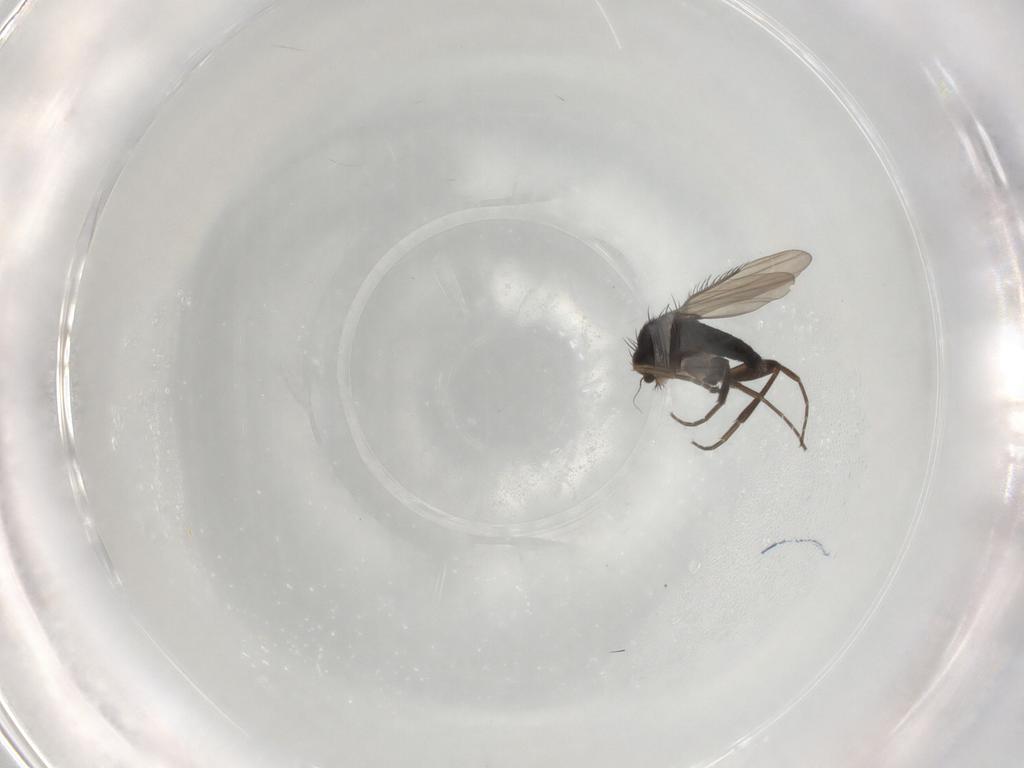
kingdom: Animalia
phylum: Arthropoda
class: Insecta
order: Diptera
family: Phoridae
